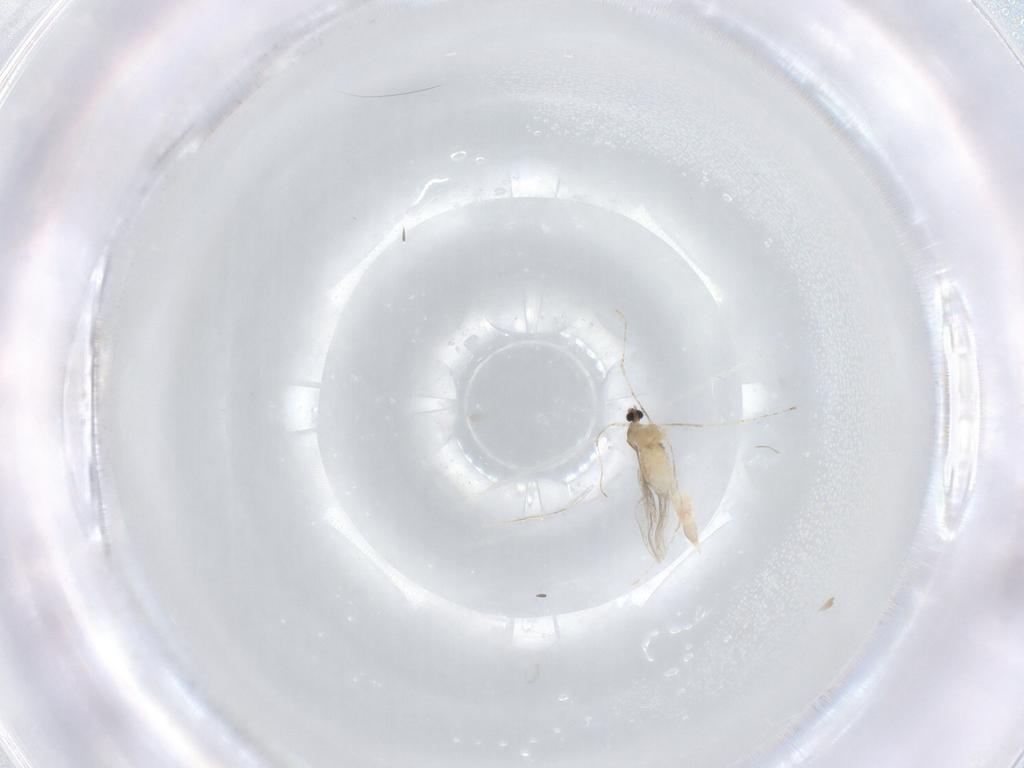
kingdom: Animalia
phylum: Arthropoda
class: Insecta
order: Diptera
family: Cecidomyiidae
